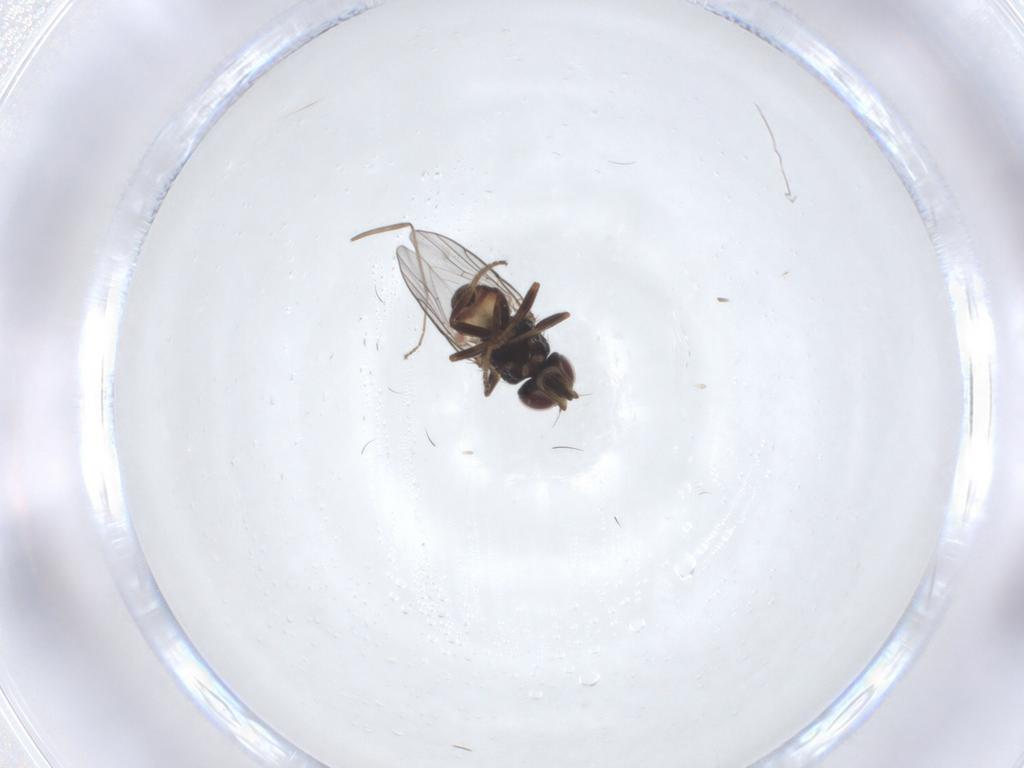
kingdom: Animalia
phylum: Arthropoda
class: Insecta
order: Diptera
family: Chloropidae
